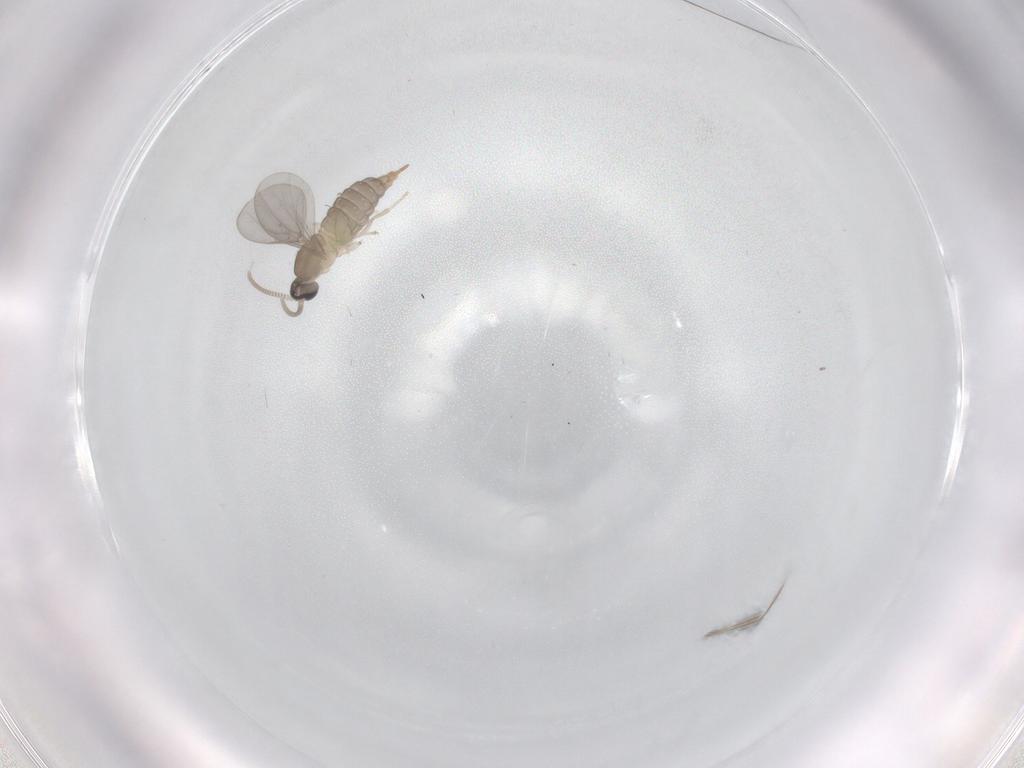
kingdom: Animalia
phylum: Arthropoda
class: Insecta
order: Diptera
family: Cecidomyiidae
